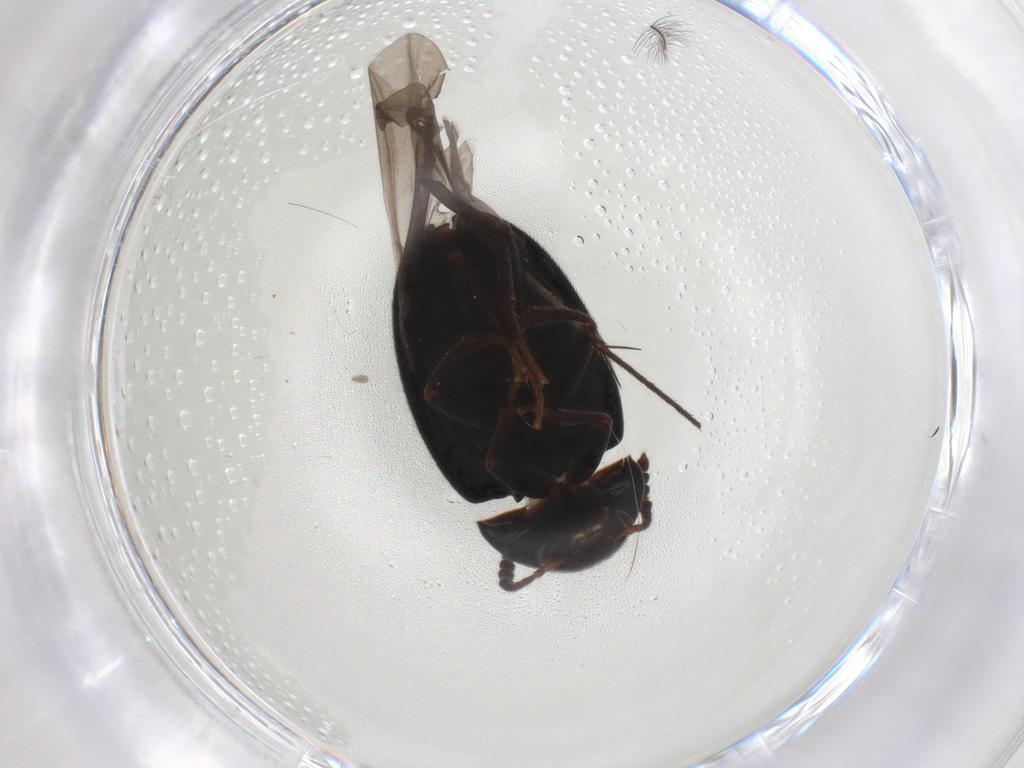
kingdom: Animalia
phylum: Arthropoda
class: Insecta
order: Coleoptera
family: Leiodidae
